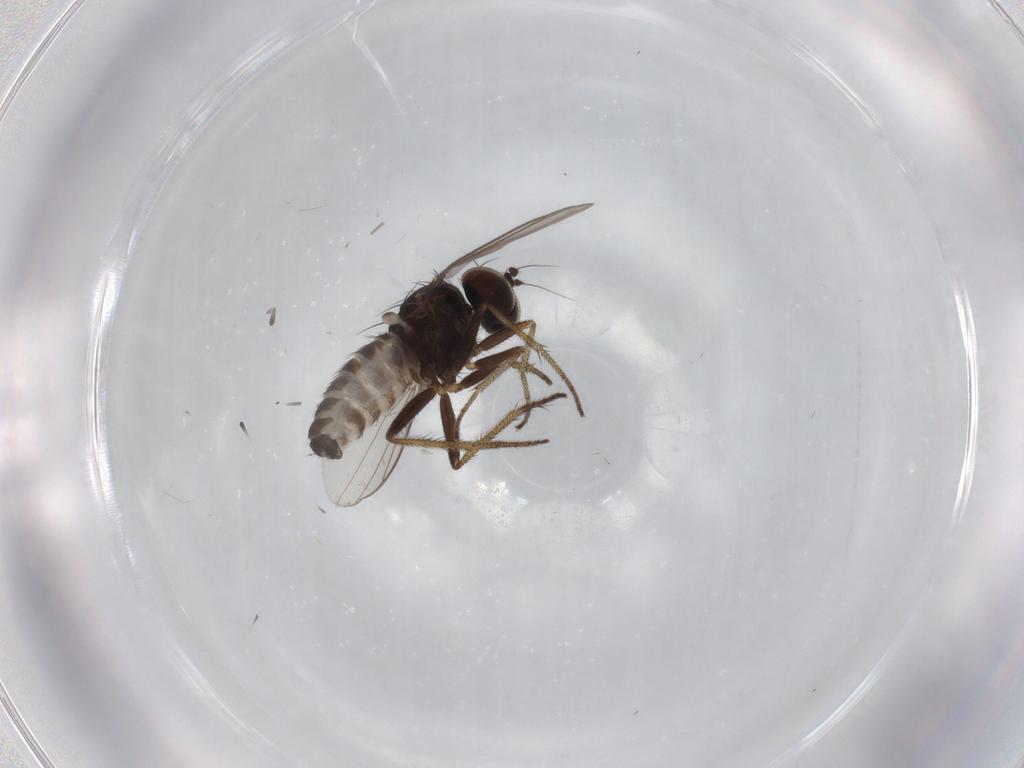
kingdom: Animalia
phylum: Arthropoda
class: Insecta
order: Diptera
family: Dolichopodidae
